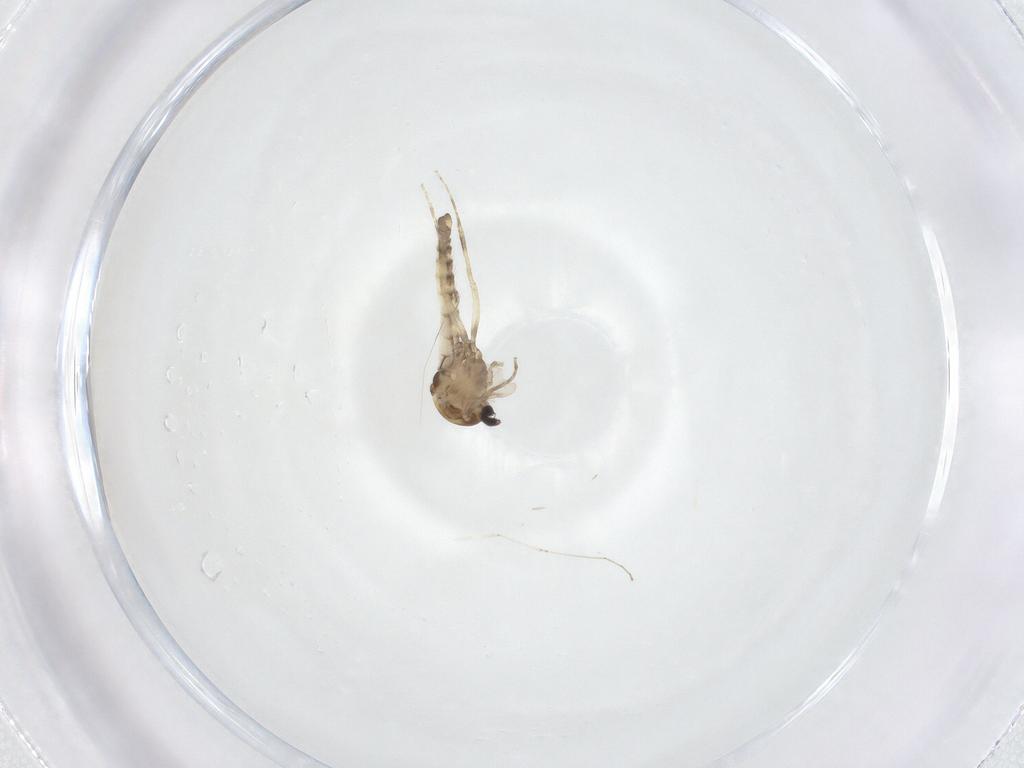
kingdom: Animalia
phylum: Arthropoda
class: Insecta
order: Diptera
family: Ceratopogonidae
